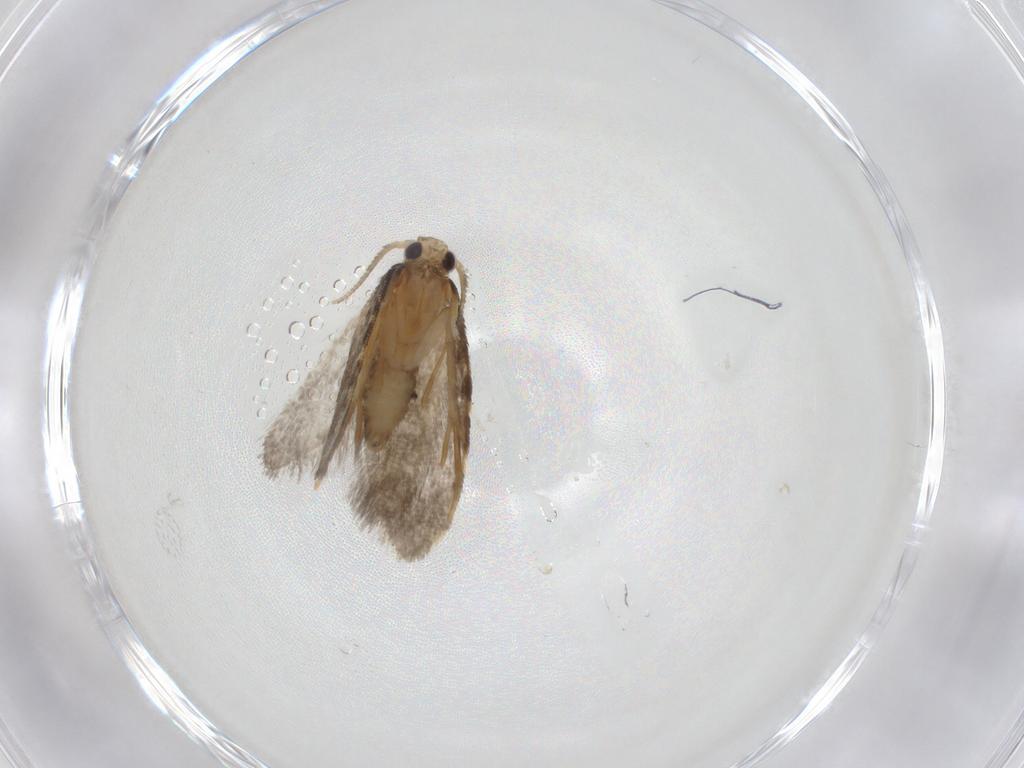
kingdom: Animalia
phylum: Arthropoda
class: Insecta
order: Lepidoptera
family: Psychidae
